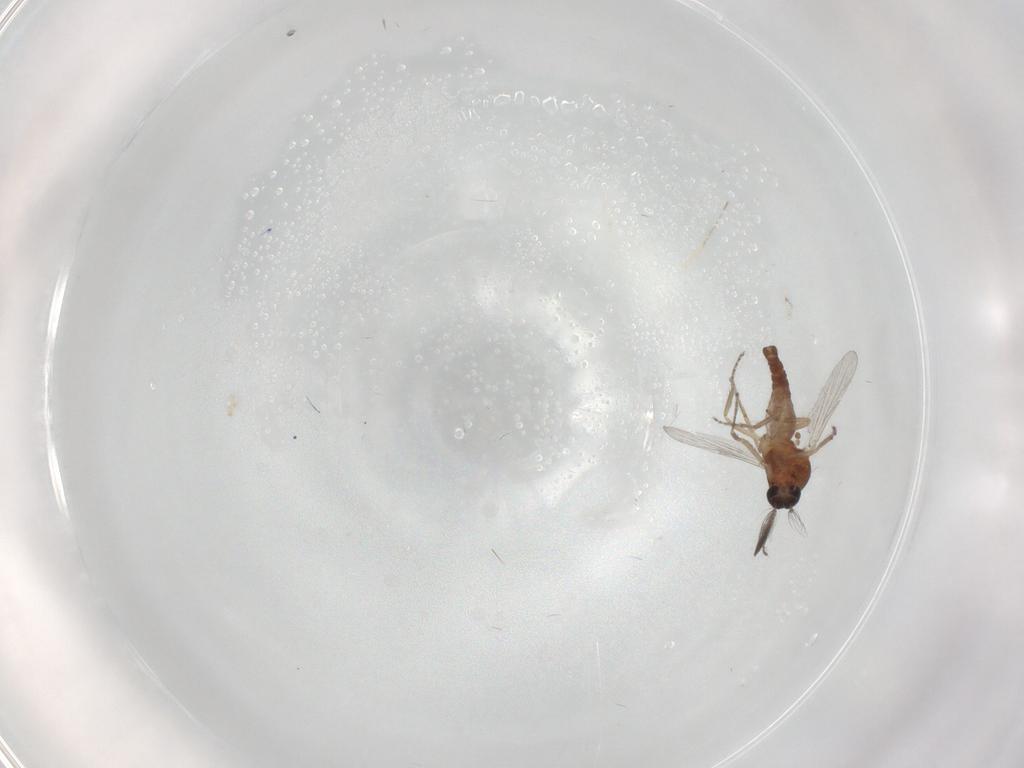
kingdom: Animalia
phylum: Arthropoda
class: Insecta
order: Diptera
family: Ceratopogonidae
